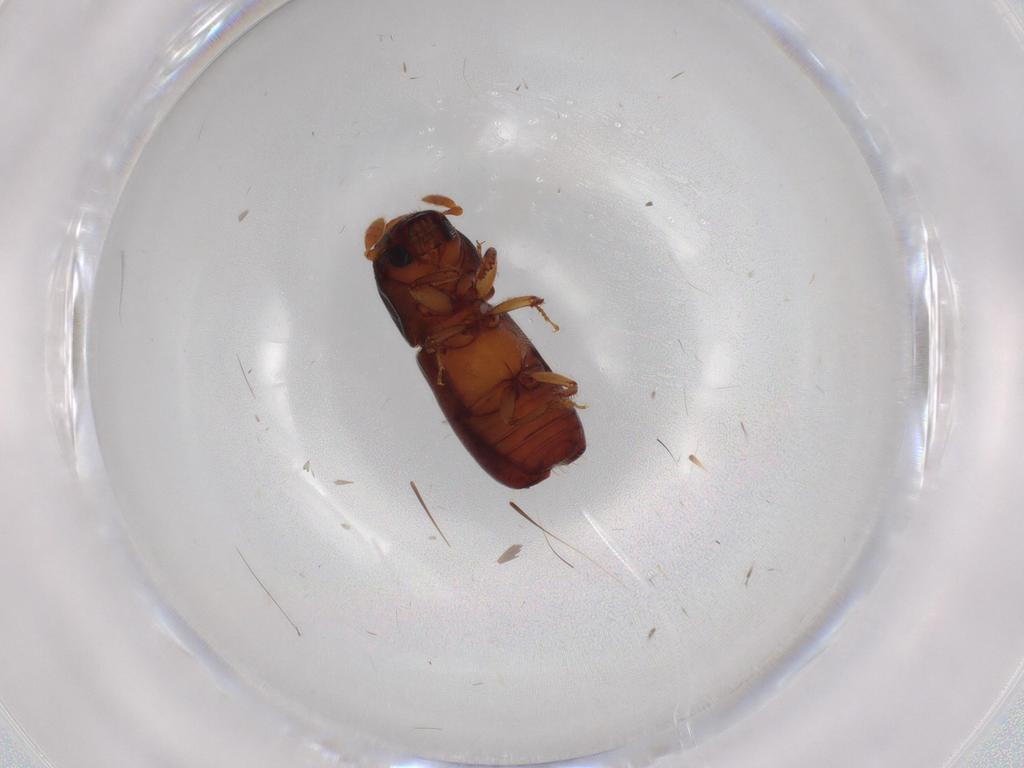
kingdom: Animalia
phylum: Arthropoda
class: Insecta
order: Coleoptera
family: Curculionidae
